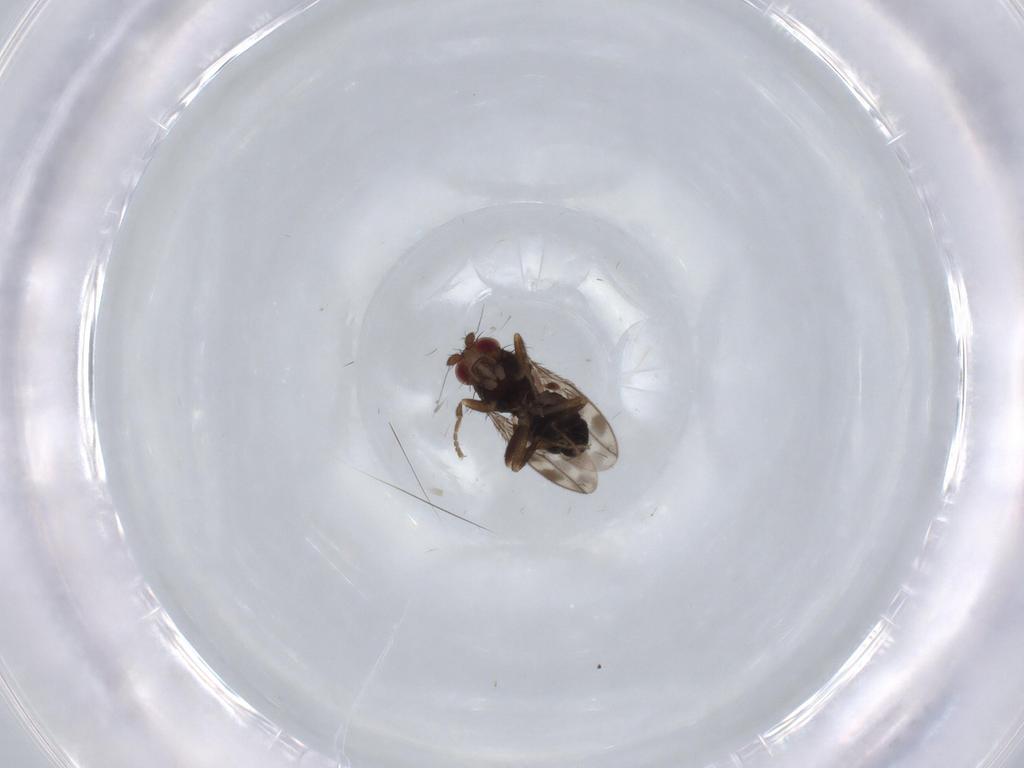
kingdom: Animalia
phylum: Arthropoda
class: Insecta
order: Diptera
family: Sphaeroceridae
